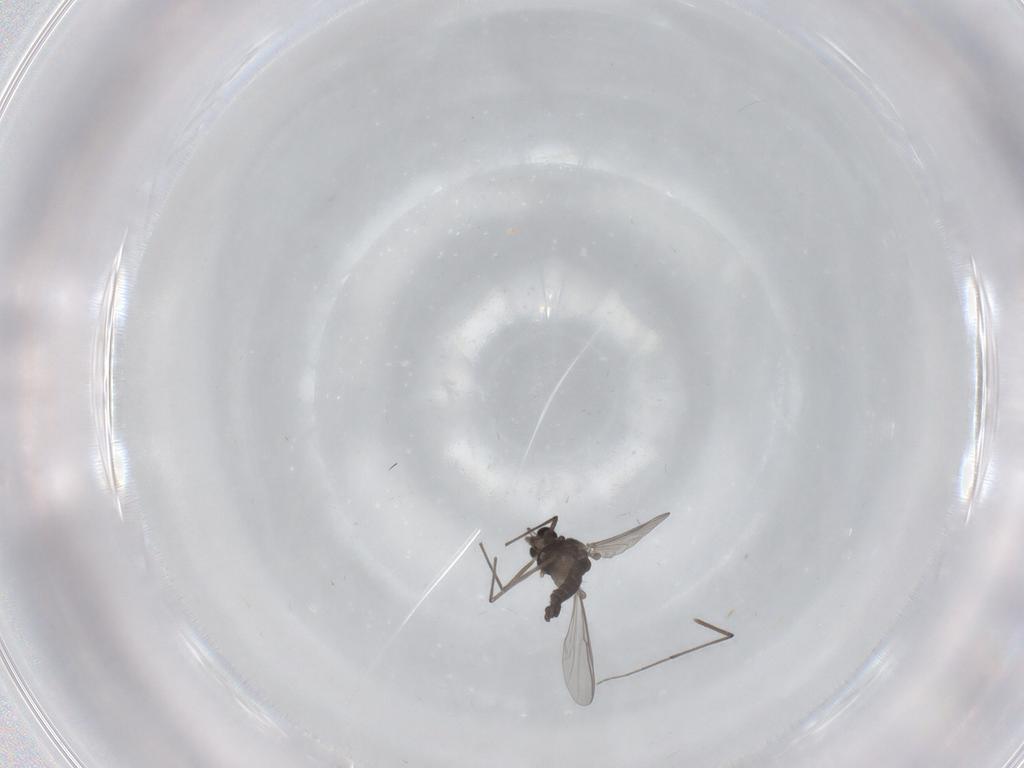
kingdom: Animalia
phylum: Arthropoda
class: Insecta
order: Diptera
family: Chironomidae
